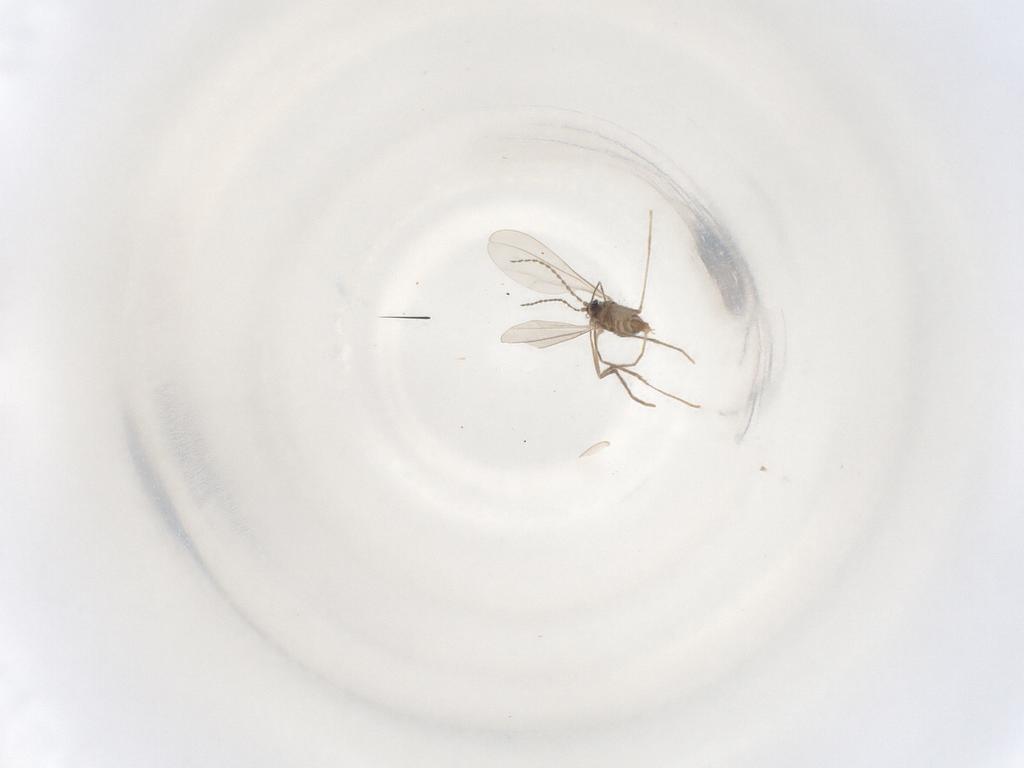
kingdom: Animalia
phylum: Arthropoda
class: Insecta
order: Diptera
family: Cecidomyiidae
